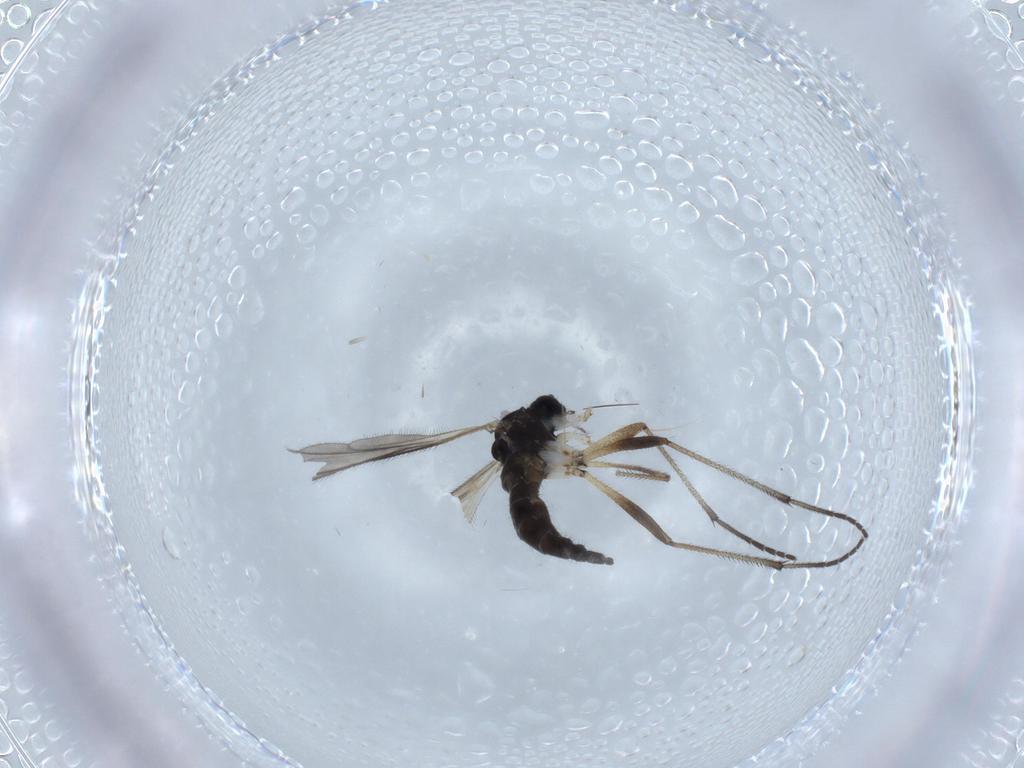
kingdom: Animalia
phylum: Arthropoda
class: Insecta
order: Diptera
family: Sciaridae
